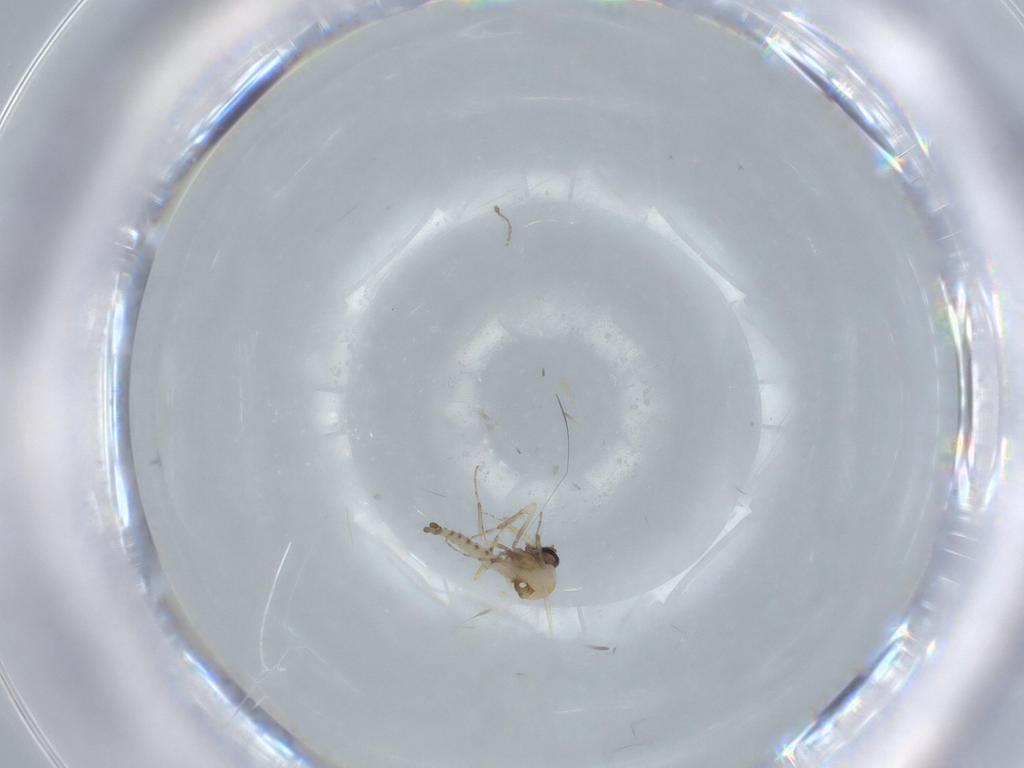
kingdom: Animalia
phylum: Arthropoda
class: Insecta
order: Diptera
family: Ceratopogonidae
